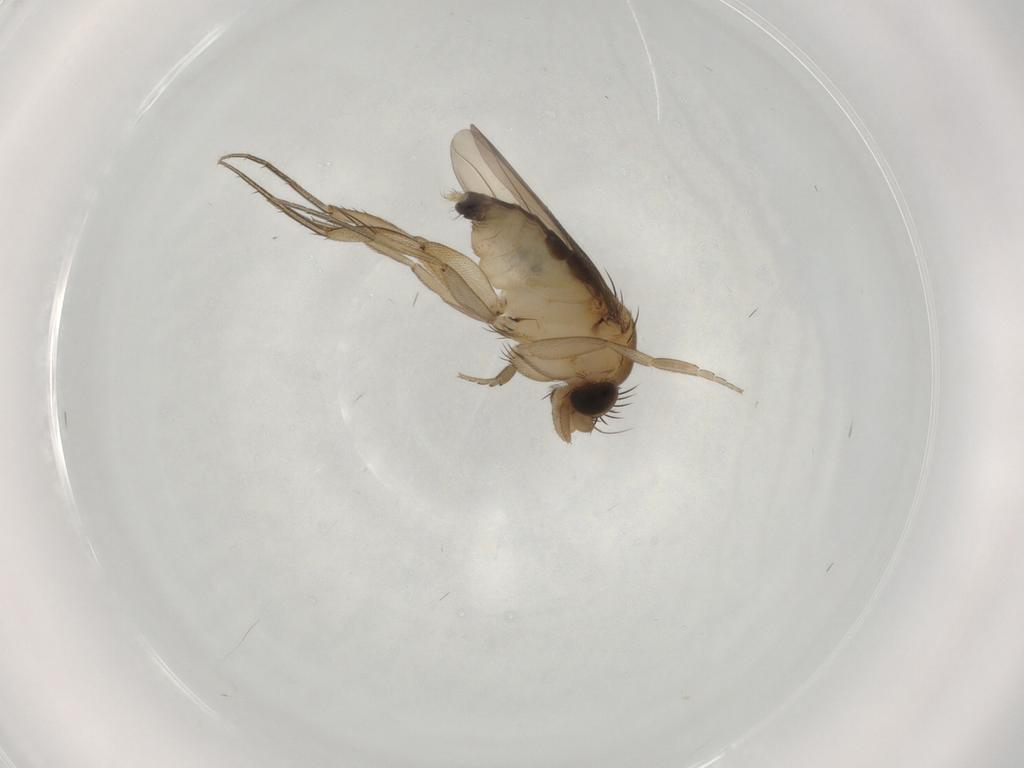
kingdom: Animalia
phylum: Arthropoda
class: Insecta
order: Diptera
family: Phoridae
